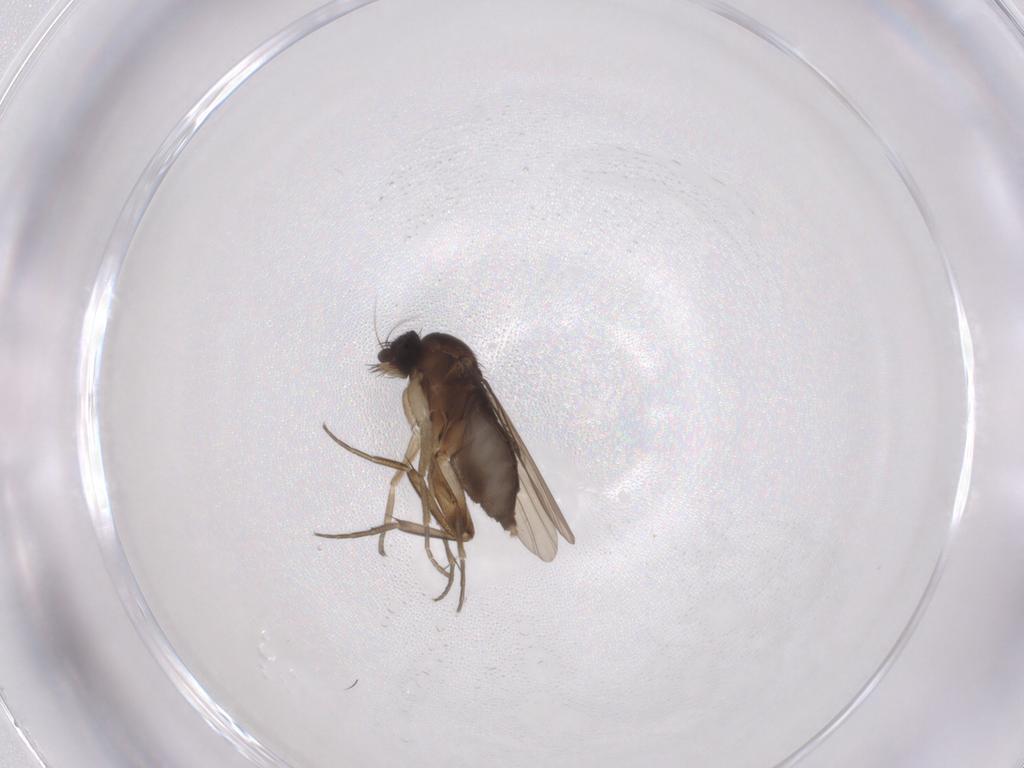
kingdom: Animalia
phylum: Arthropoda
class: Insecta
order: Diptera
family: Phoridae
